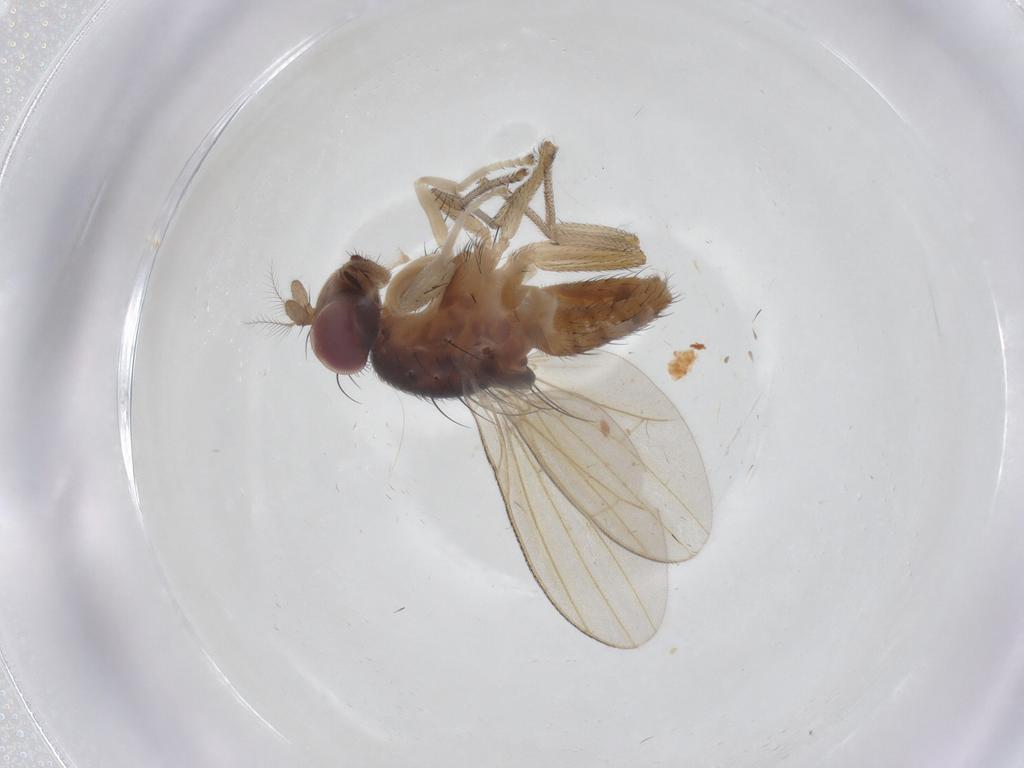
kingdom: Animalia
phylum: Arthropoda
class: Insecta
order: Diptera
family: Lauxaniidae
